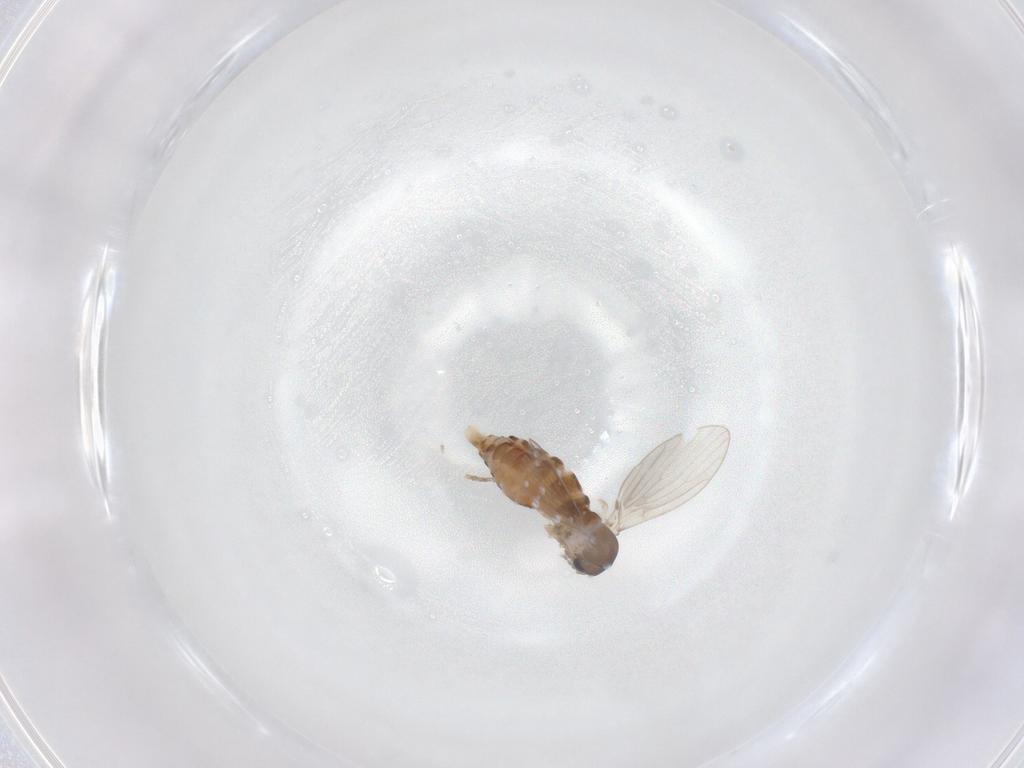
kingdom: Animalia
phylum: Arthropoda
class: Insecta
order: Diptera
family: Psychodidae
